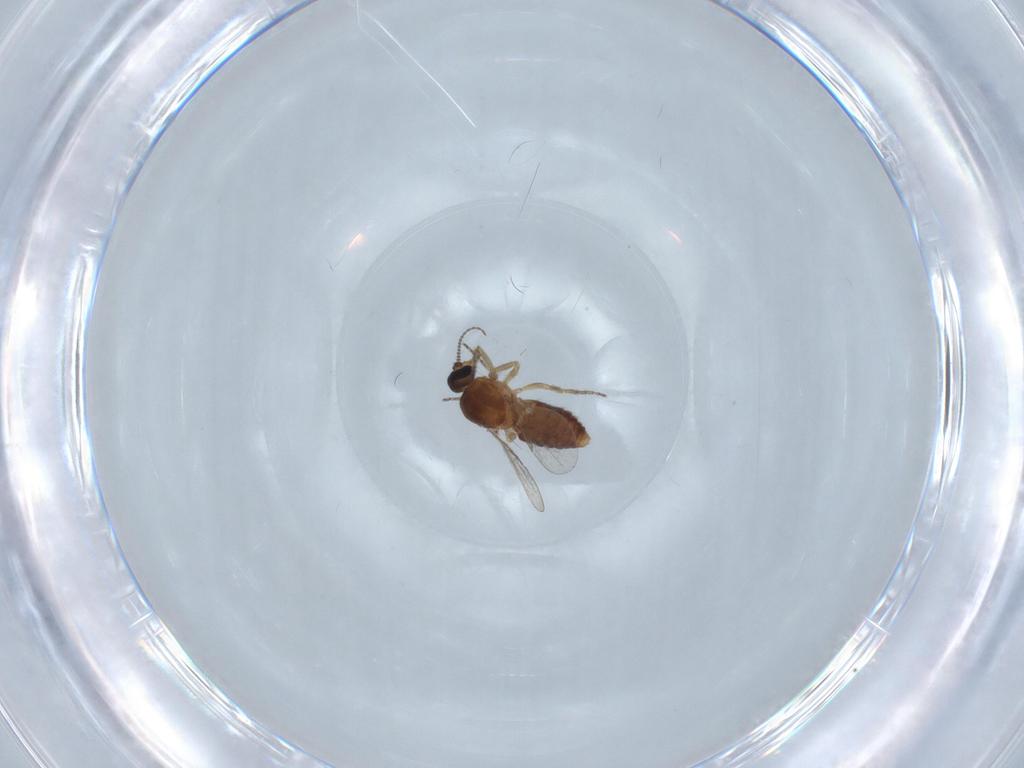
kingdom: Animalia
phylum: Arthropoda
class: Insecta
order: Diptera
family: Ceratopogonidae
